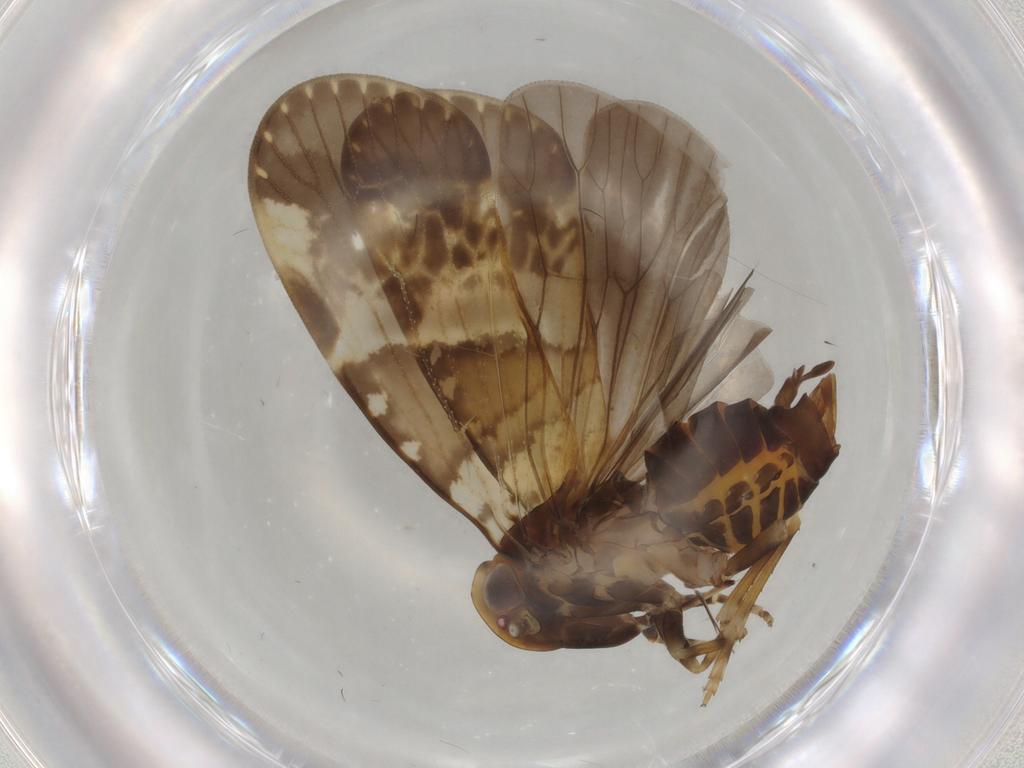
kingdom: Animalia
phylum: Arthropoda
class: Insecta
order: Hemiptera
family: Cixiidae
